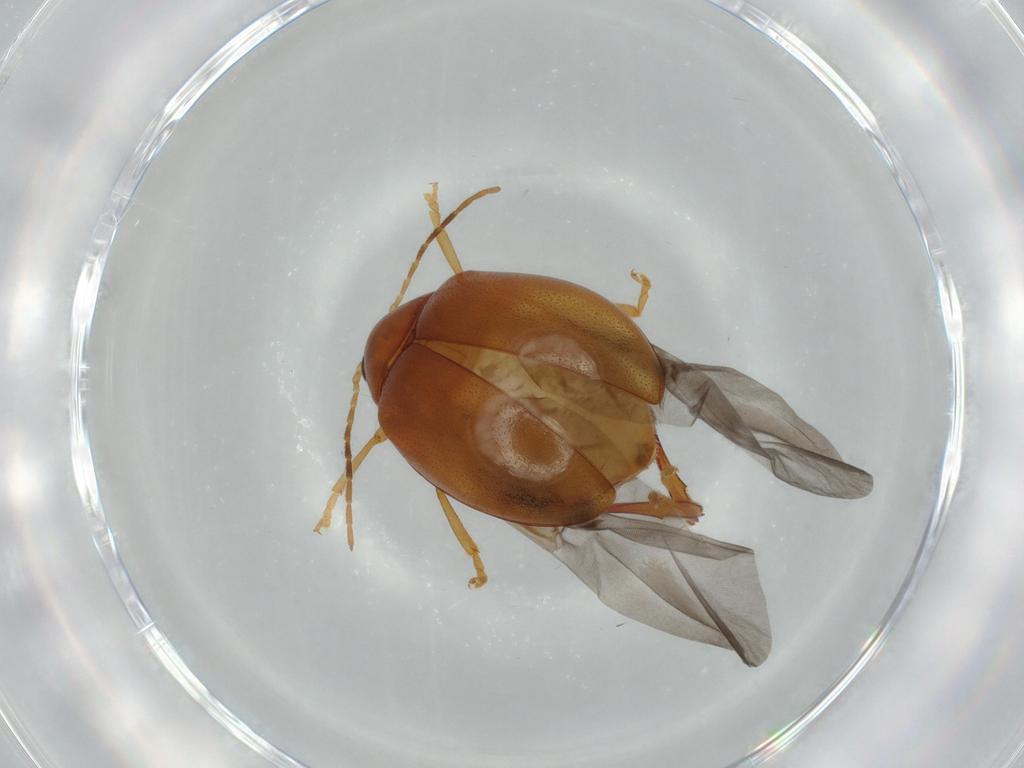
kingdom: Animalia
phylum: Arthropoda
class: Insecta
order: Coleoptera
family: Chrysomelidae
